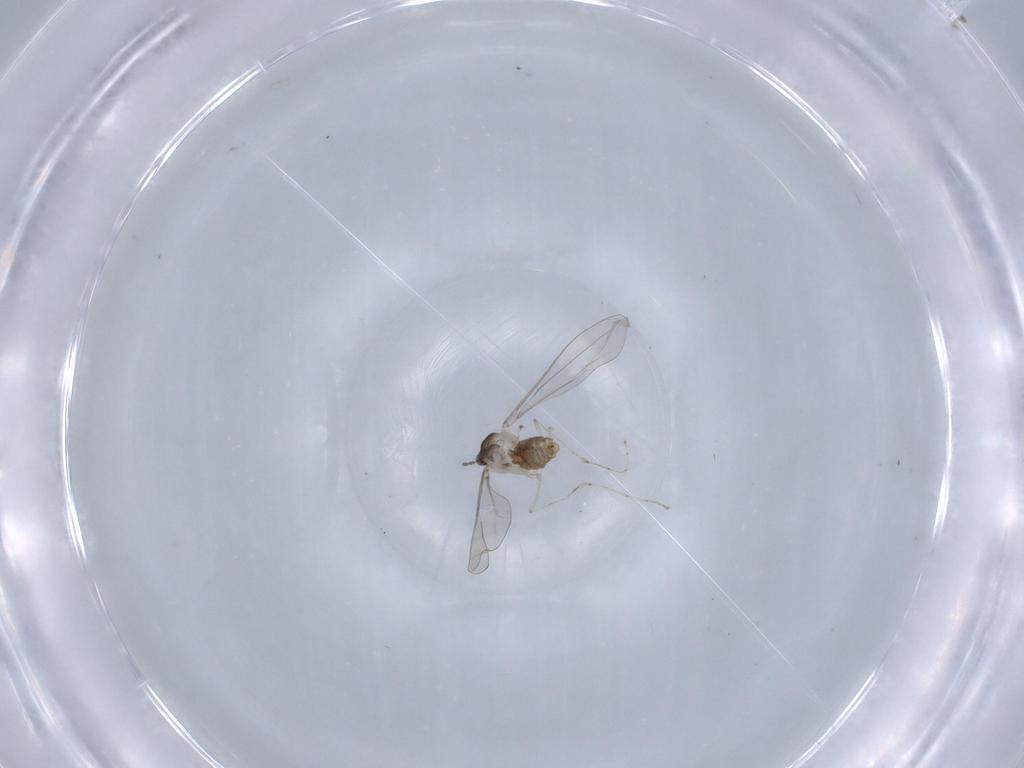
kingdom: Animalia
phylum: Arthropoda
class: Insecta
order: Diptera
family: Cecidomyiidae
